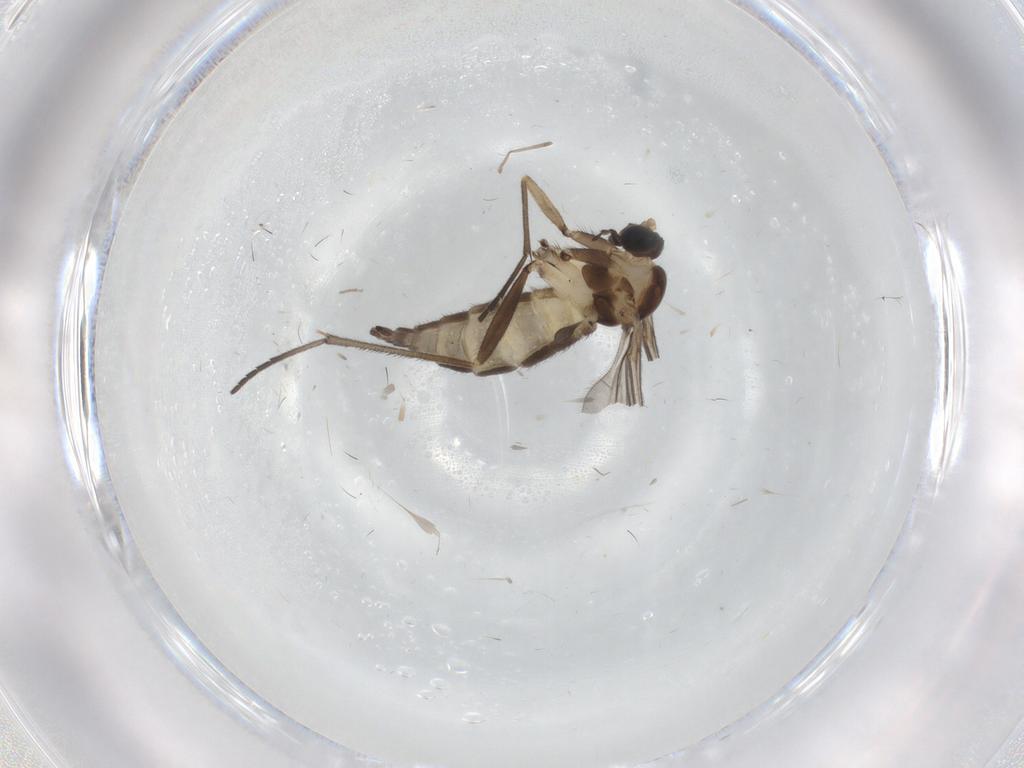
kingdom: Animalia
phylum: Arthropoda
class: Insecta
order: Diptera
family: Sciaridae
